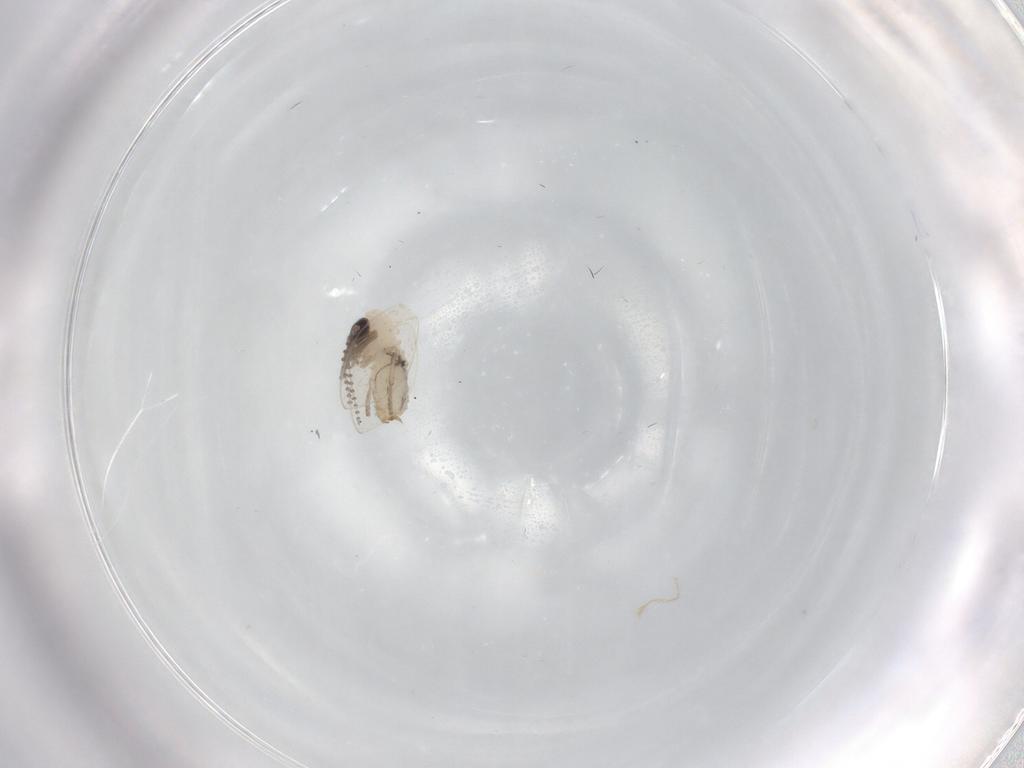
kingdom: Animalia
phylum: Arthropoda
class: Insecta
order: Diptera
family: Psychodidae
